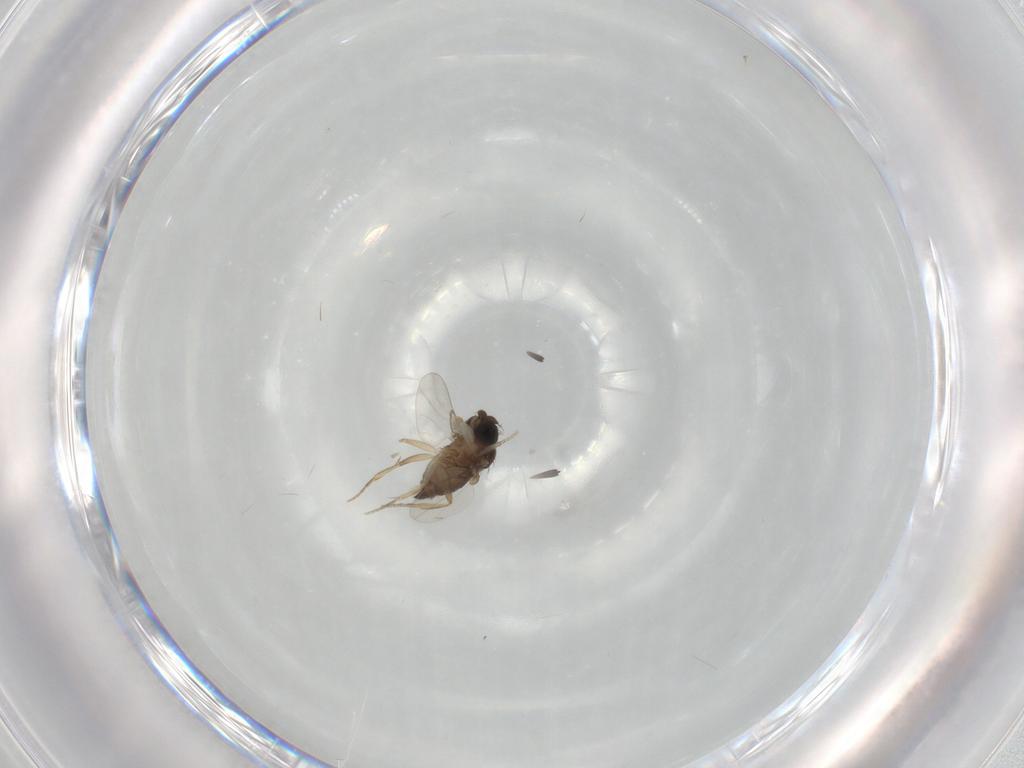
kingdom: Animalia
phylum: Arthropoda
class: Insecta
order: Diptera
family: Phoridae
